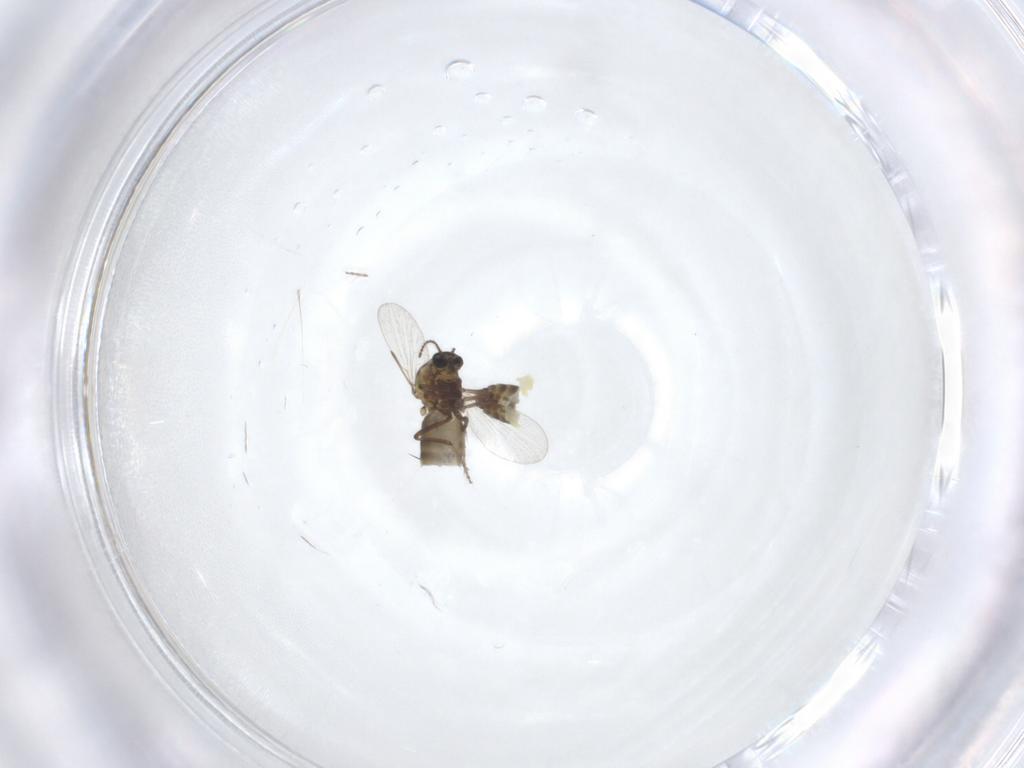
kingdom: Animalia
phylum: Arthropoda
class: Insecta
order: Diptera
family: Ceratopogonidae
